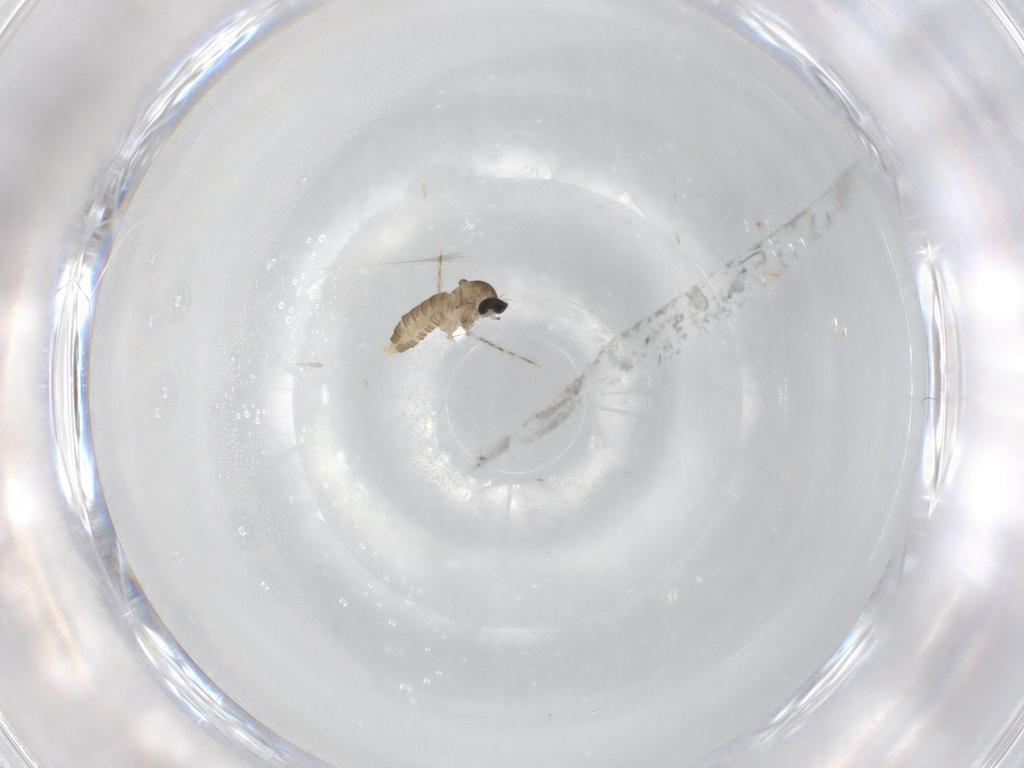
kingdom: Animalia
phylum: Arthropoda
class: Insecta
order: Diptera
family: Cecidomyiidae
